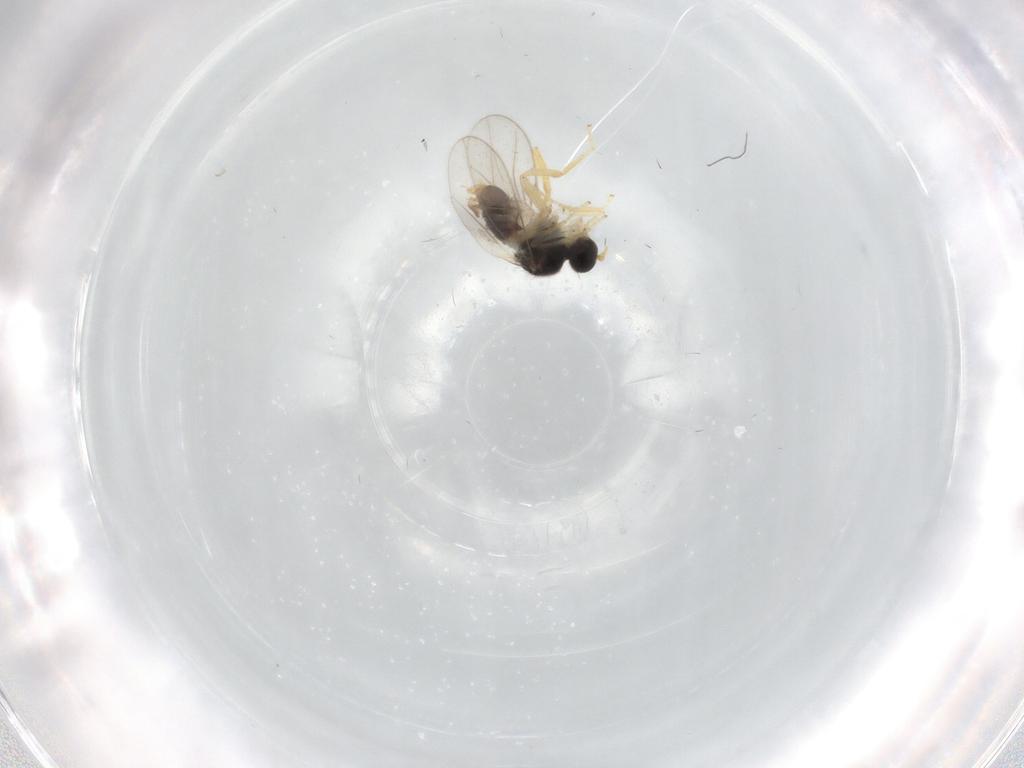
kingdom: Animalia
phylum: Arthropoda
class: Insecta
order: Diptera
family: Hybotidae
